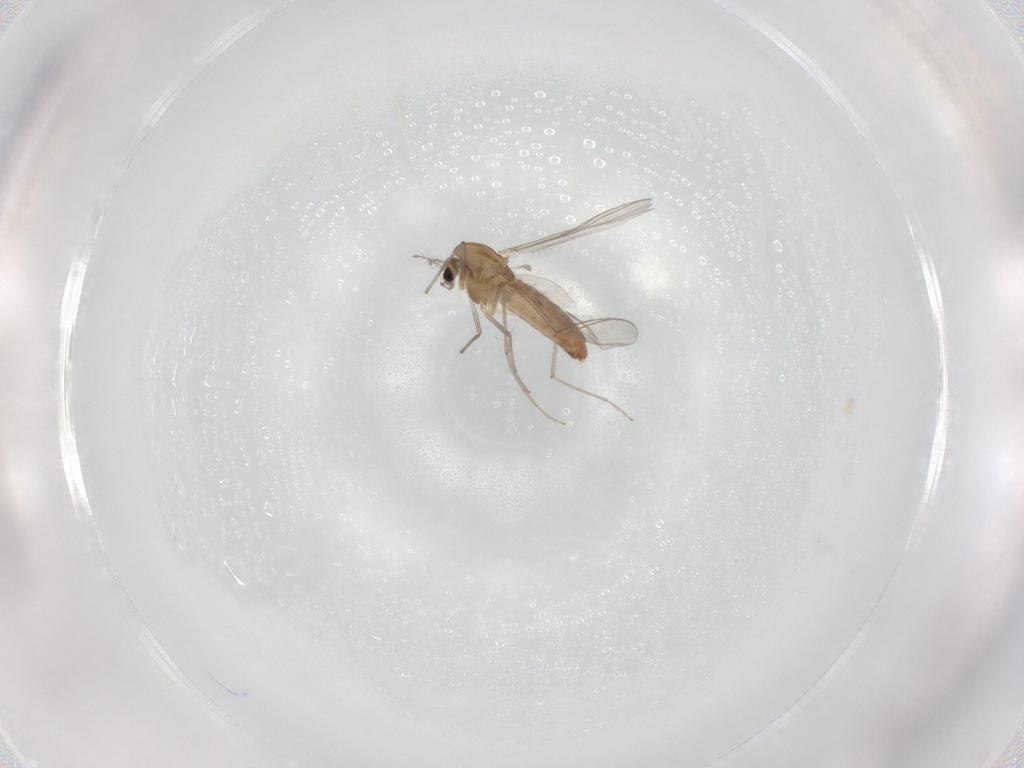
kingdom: Animalia
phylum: Arthropoda
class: Insecta
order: Diptera
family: Chironomidae
